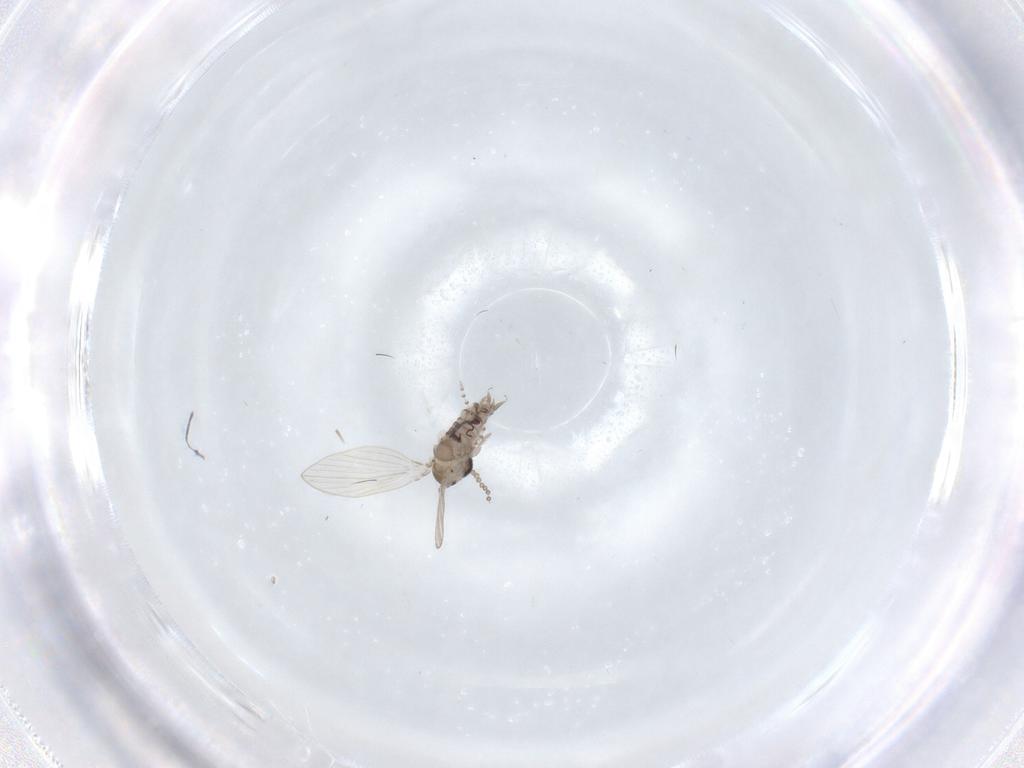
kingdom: Animalia
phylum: Arthropoda
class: Insecta
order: Diptera
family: Psychodidae
